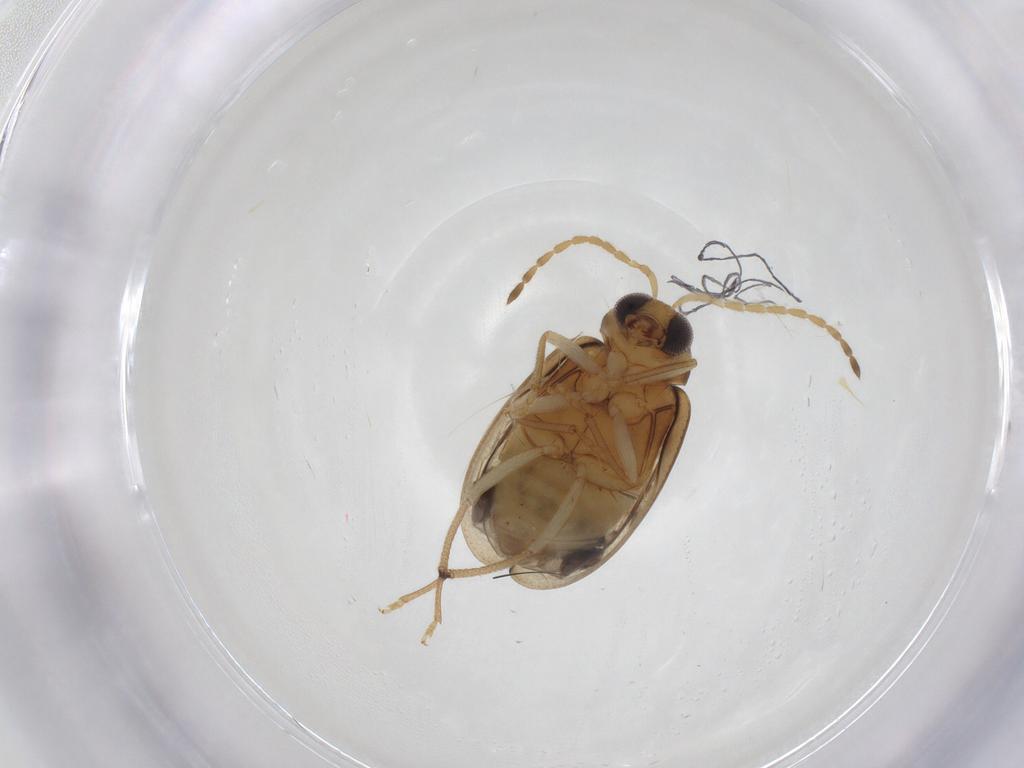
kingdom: Animalia
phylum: Arthropoda
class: Insecta
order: Coleoptera
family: Chrysomelidae
